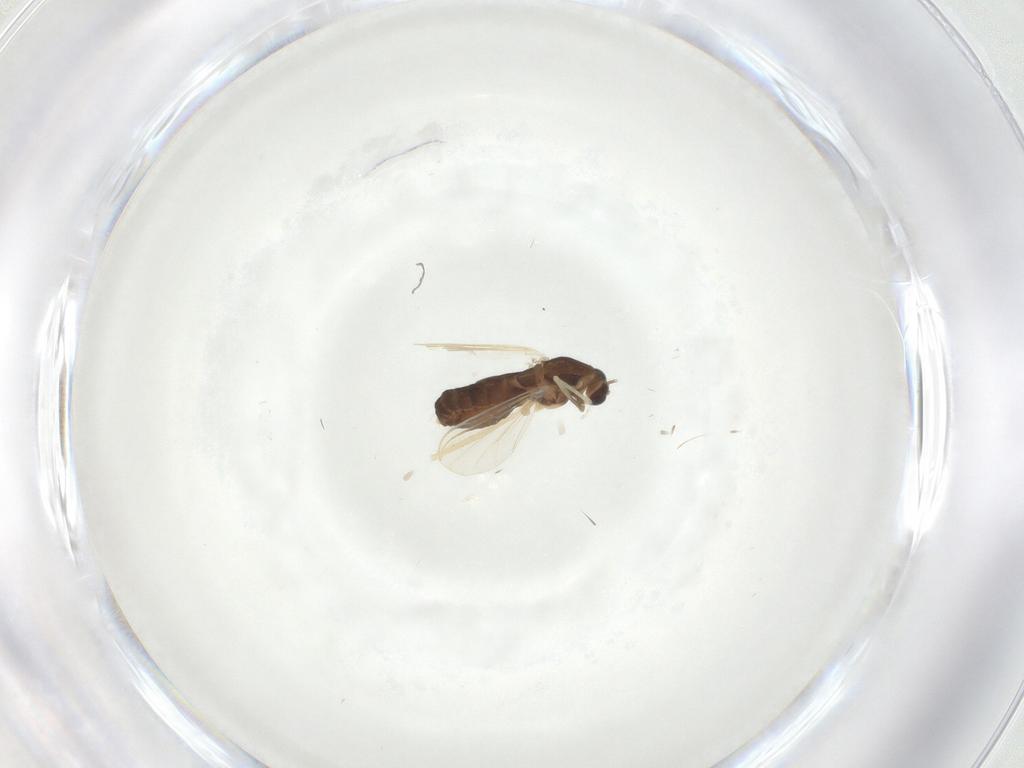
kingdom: Animalia
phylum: Arthropoda
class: Insecta
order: Diptera
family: Chironomidae
